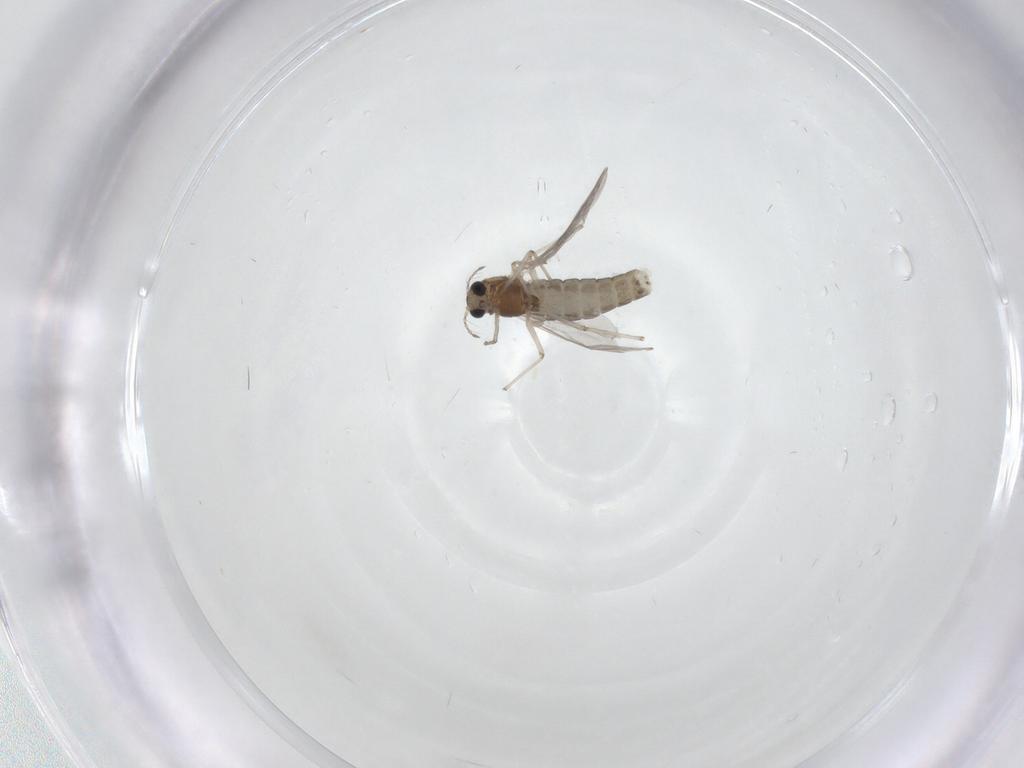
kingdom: Animalia
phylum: Arthropoda
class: Insecta
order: Diptera
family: Chironomidae
